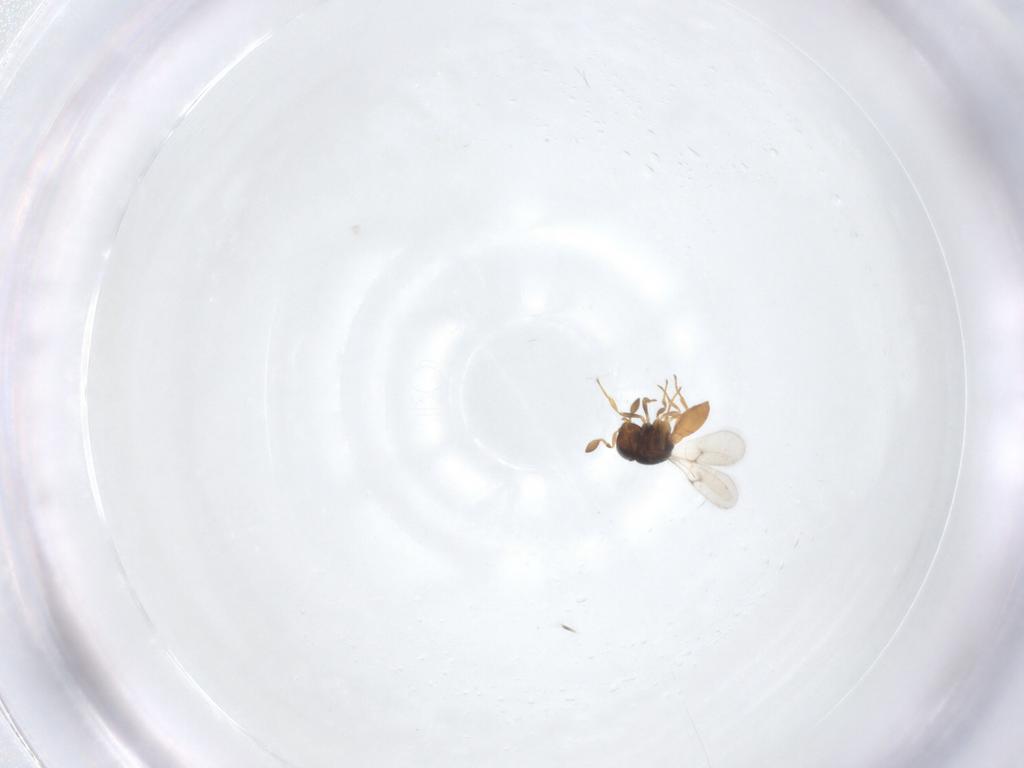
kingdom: Animalia
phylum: Arthropoda
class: Arachnida
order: Araneae
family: Pholcidae
